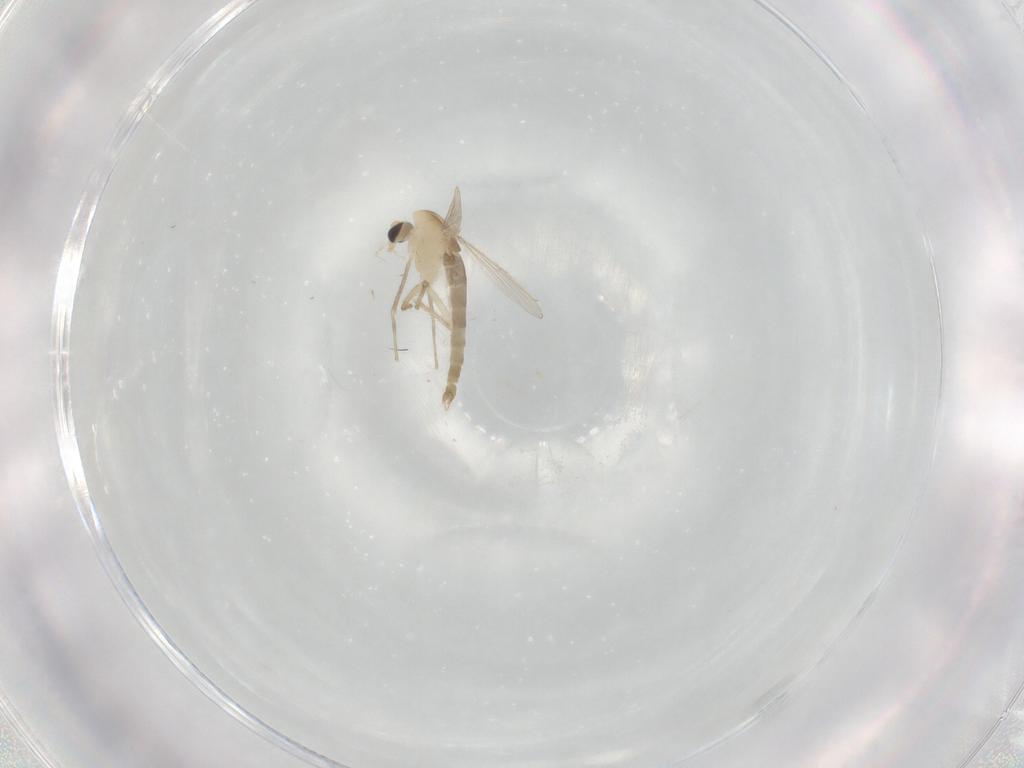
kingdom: Animalia
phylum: Arthropoda
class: Insecta
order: Diptera
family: Chironomidae
